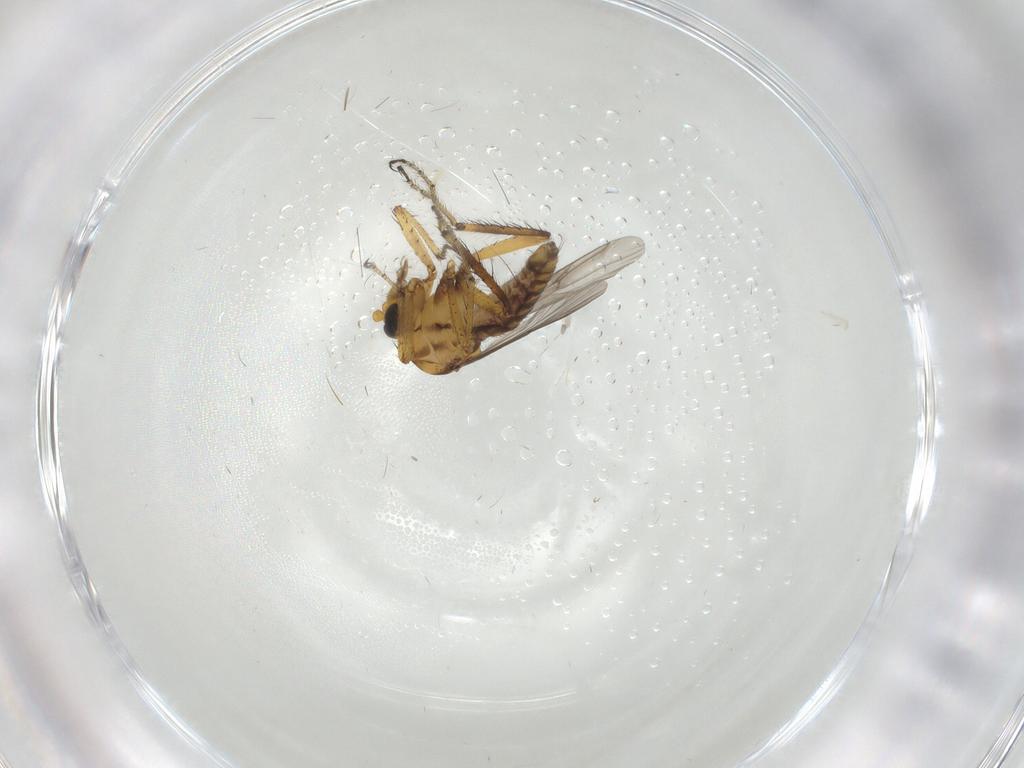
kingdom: Animalia
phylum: Arthropoda
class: Insecta
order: Diptera
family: Ceratopogonidae
